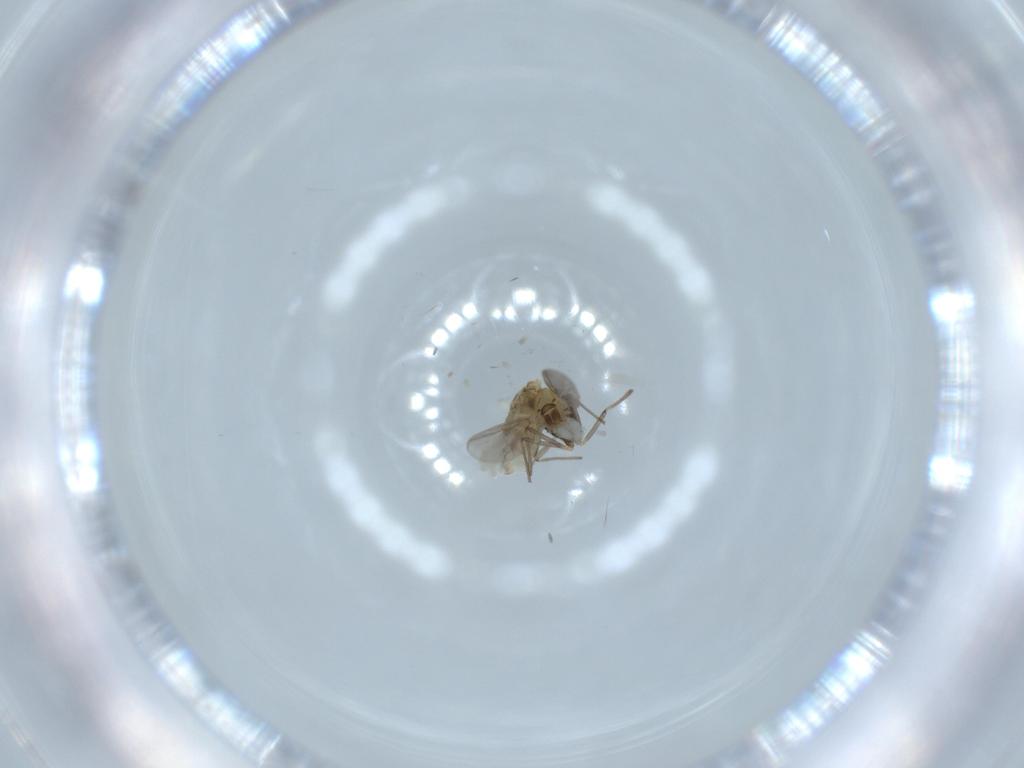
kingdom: Animalia
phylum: Arthropoda
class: Insecta
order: Diptera
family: Chironomidae
